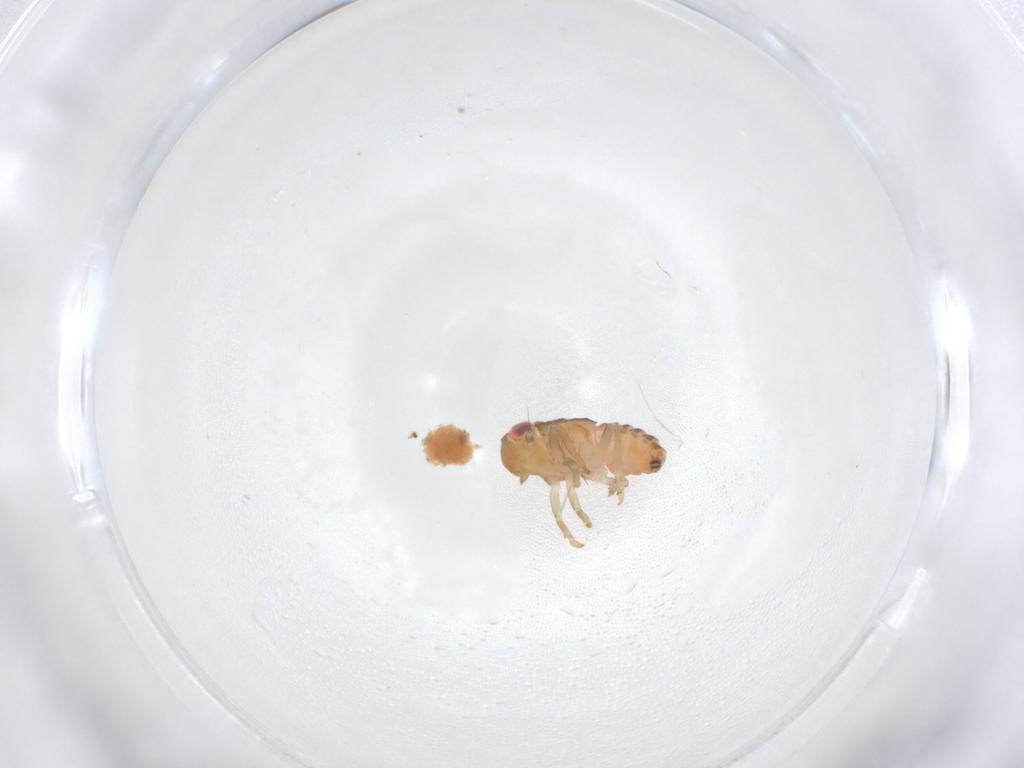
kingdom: Animalia
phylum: Arthropoda
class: Insecta
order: Hemiptera
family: Issidae
